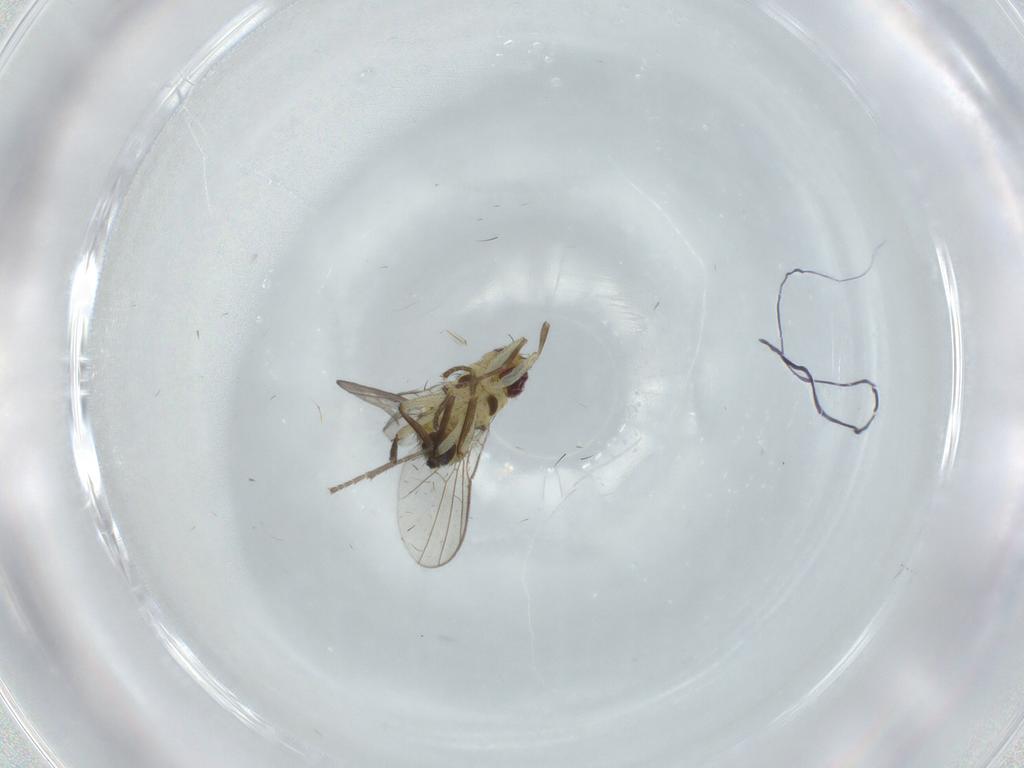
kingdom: Animalia
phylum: Arthropoda
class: Insecta
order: Diptera
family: Agromyzidae
